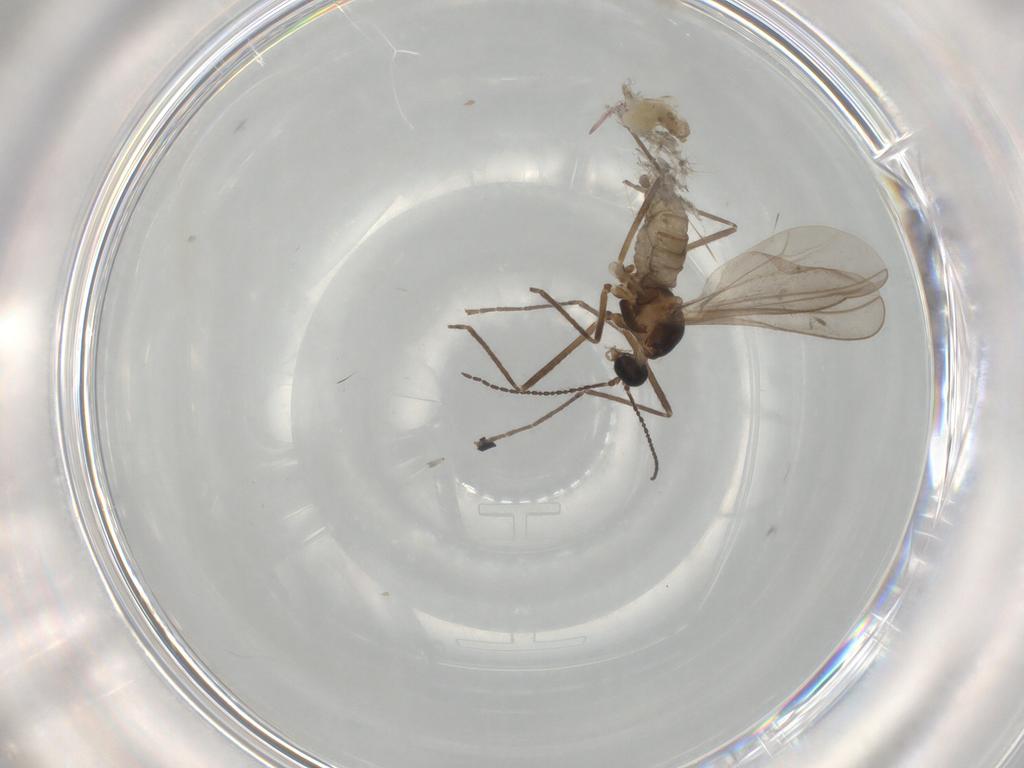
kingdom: Animalia
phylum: Arthropoda
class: Insecta
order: Diptera
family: Cecidomyiidae
